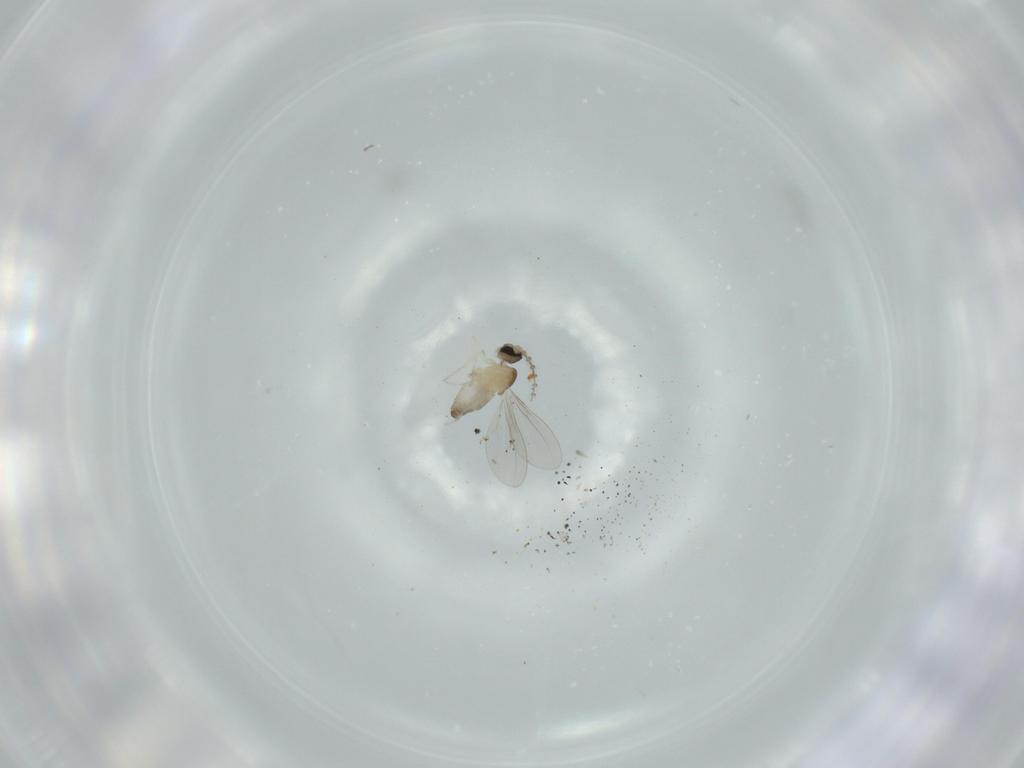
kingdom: Animalia
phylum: Arthropoda
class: Insecta
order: Diptera
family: Cecidomyiidae
